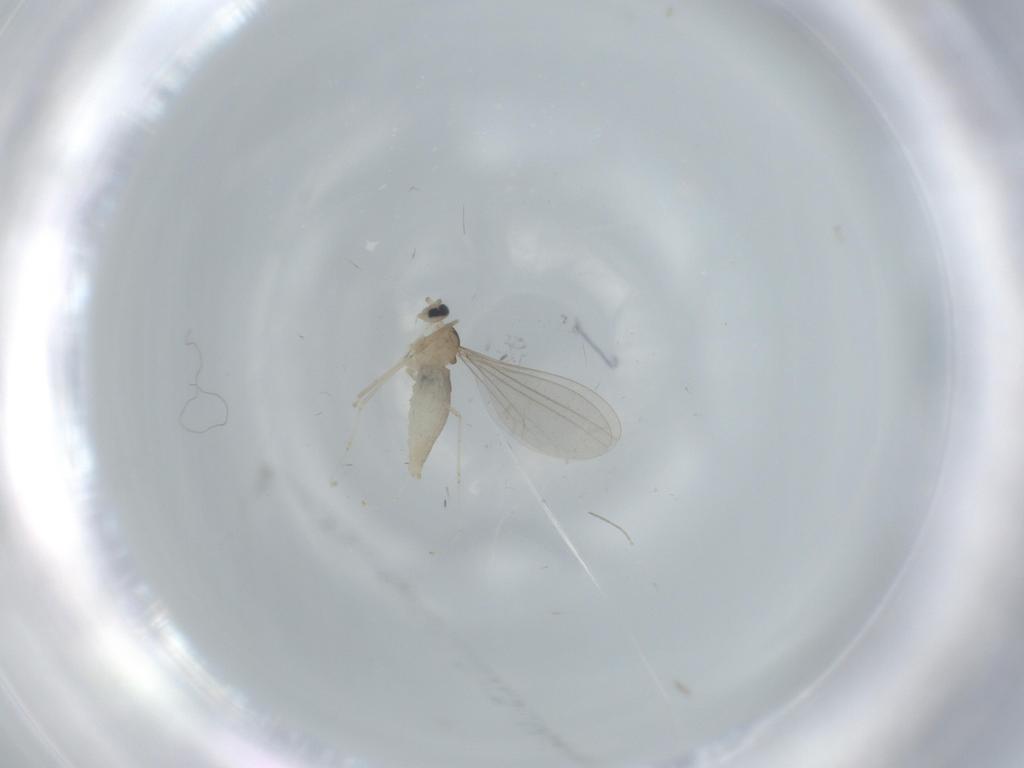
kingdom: Animalia
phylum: Arthropoda
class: Insecta
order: Diptera
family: Cecidomyiidae
